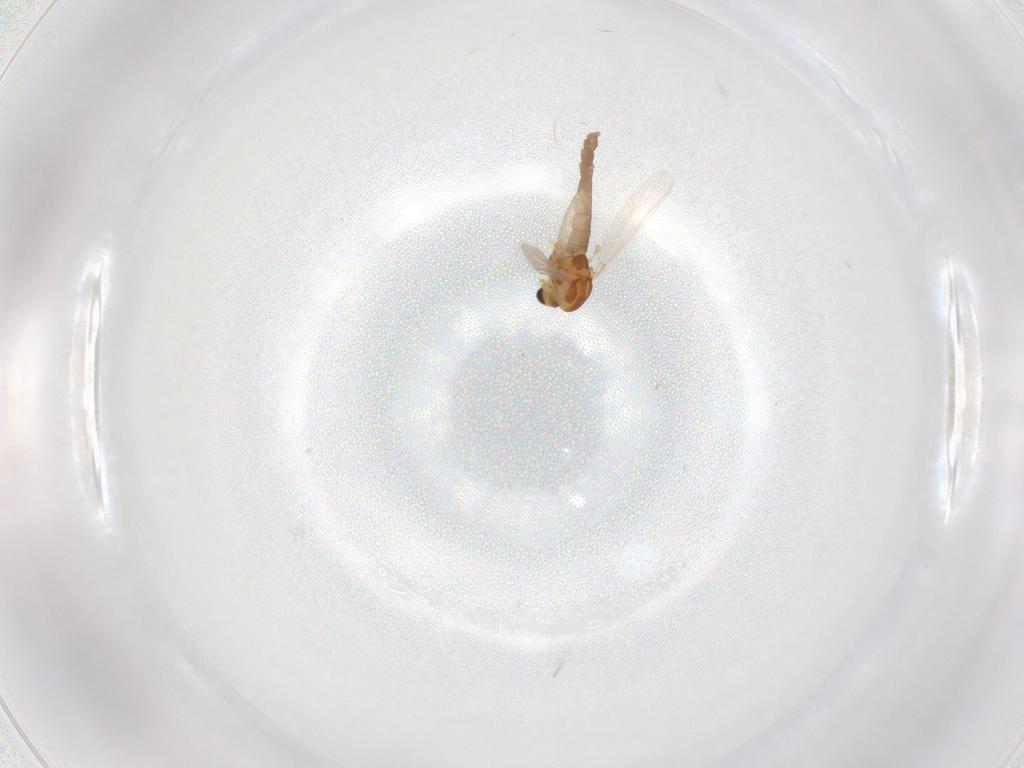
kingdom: Animalia
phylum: Arthropoda
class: Insecta
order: Diptera
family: Chironomidae
